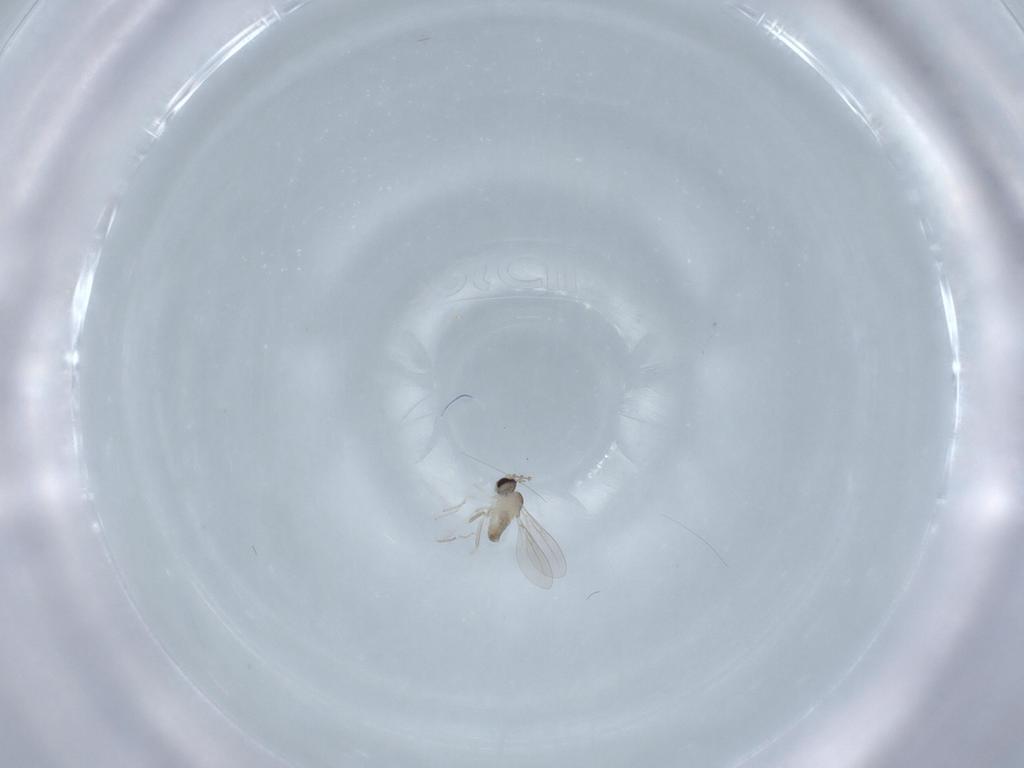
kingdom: Animalia
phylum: Arthropoda
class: Insecta
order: Diptera
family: Cecidomyiidae
